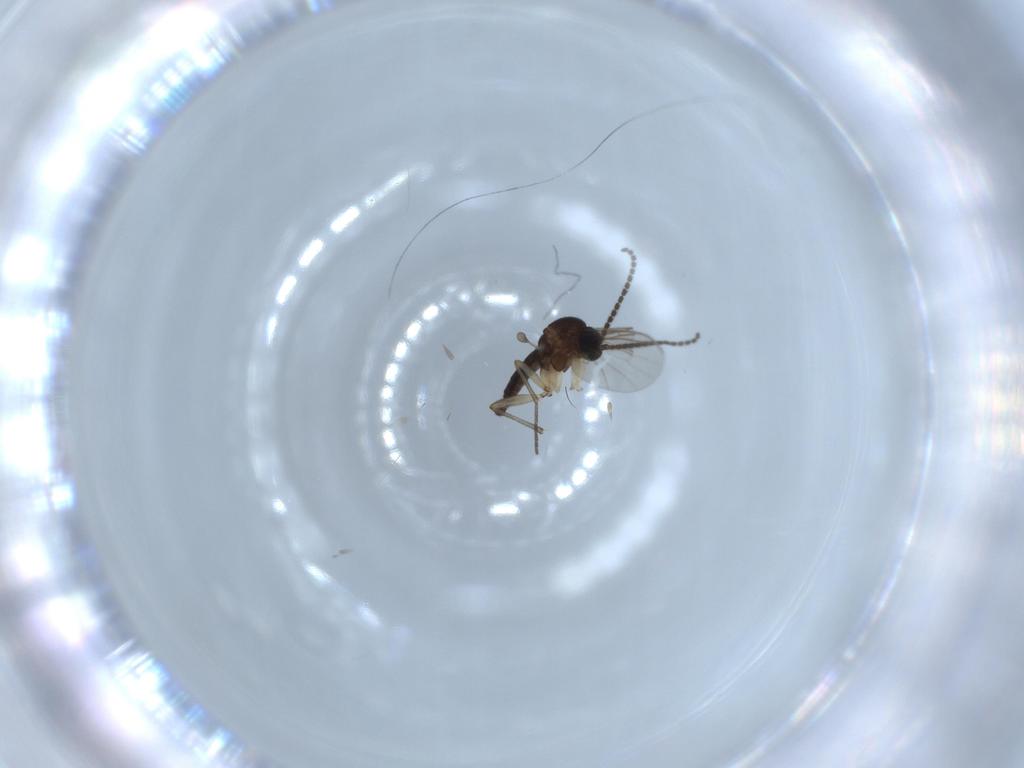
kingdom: Animalia
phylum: Arthropoda
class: Insecta
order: Diptera
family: Sciaridae
